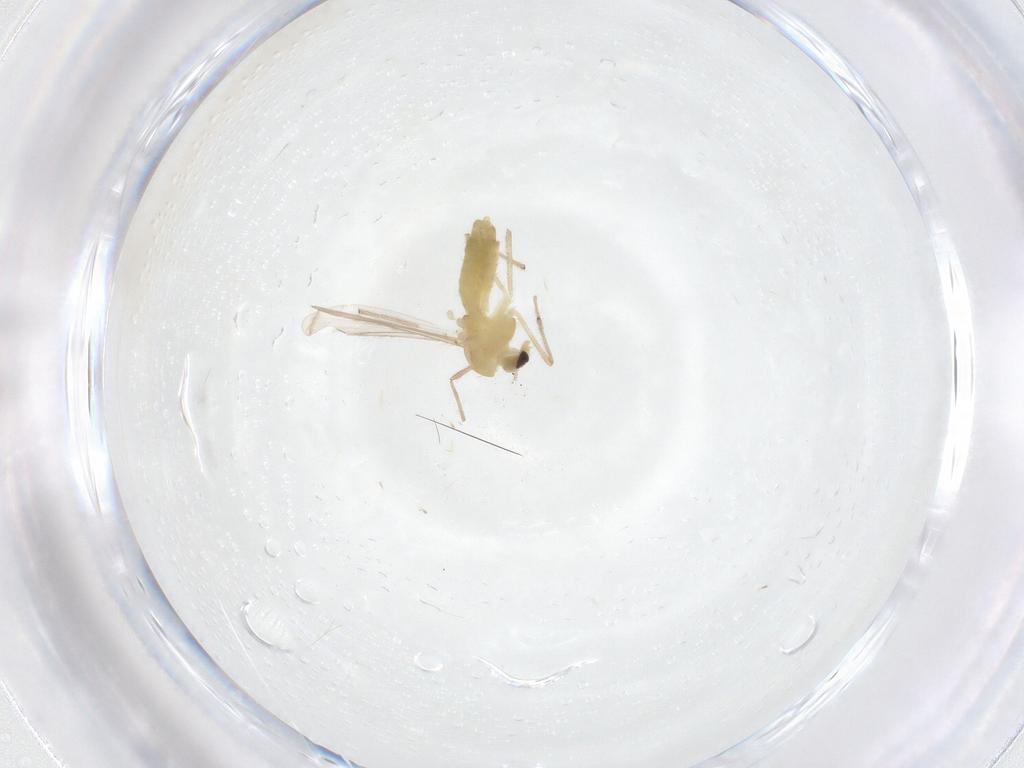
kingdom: Animalia
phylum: Arthropoda
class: Insecta
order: Diptera
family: Chironomidae
